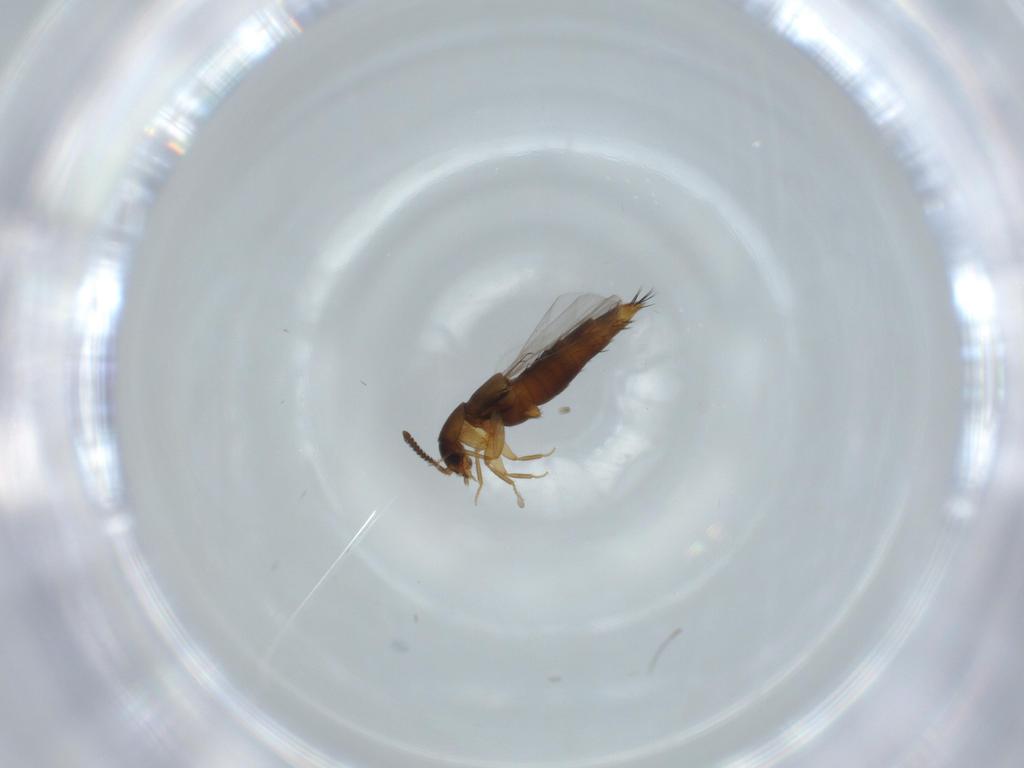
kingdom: Animalia
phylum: Arthropoda
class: Insecta
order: Coleoptera
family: Staphylinidae
